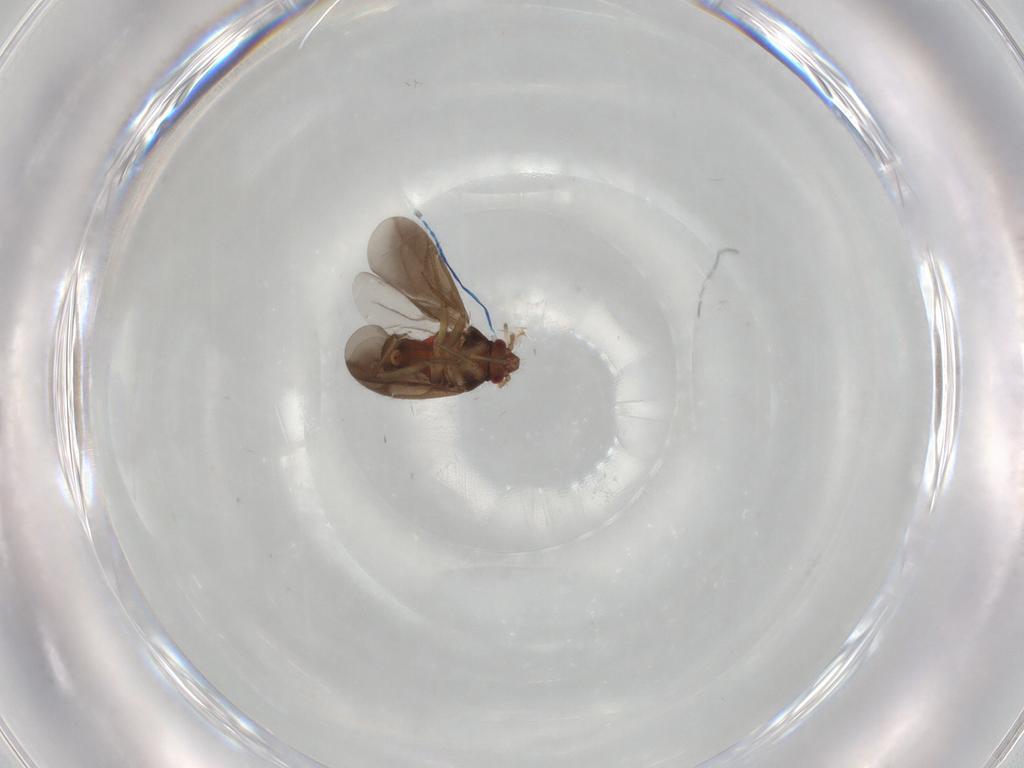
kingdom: Animalia
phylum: Arthropoda
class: Insecta
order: Hemiptera
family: Ceratocombidae
